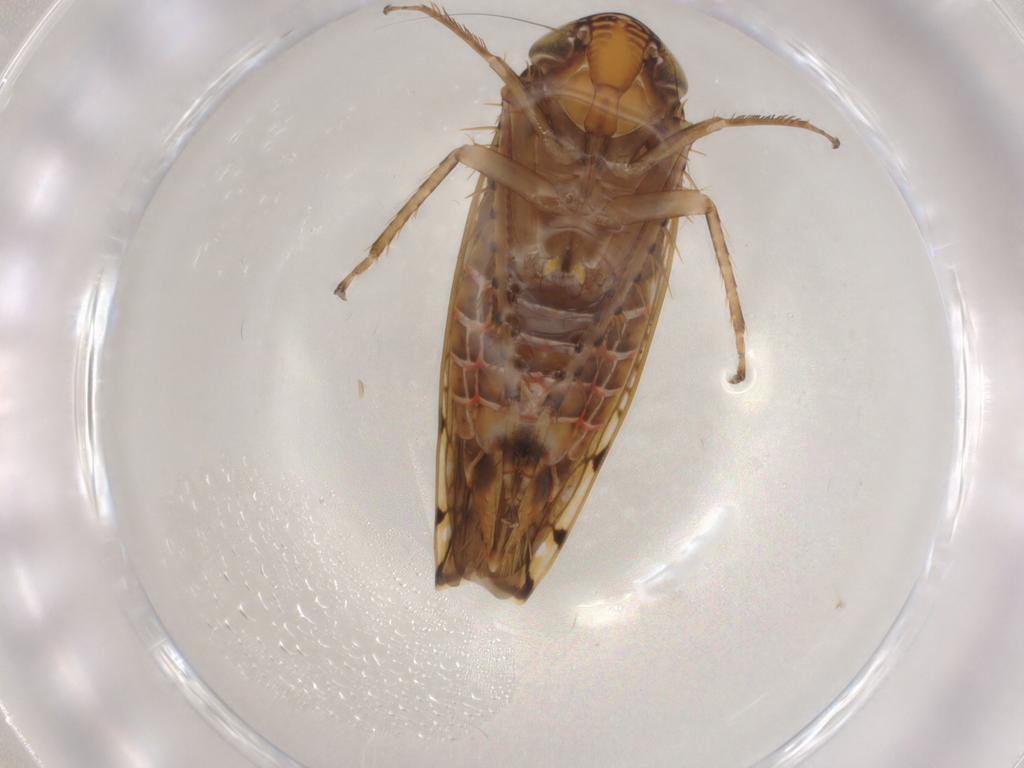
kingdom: Animalia
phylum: Arthropoda
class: Insecta
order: Hemiptera
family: Cicadellidae
